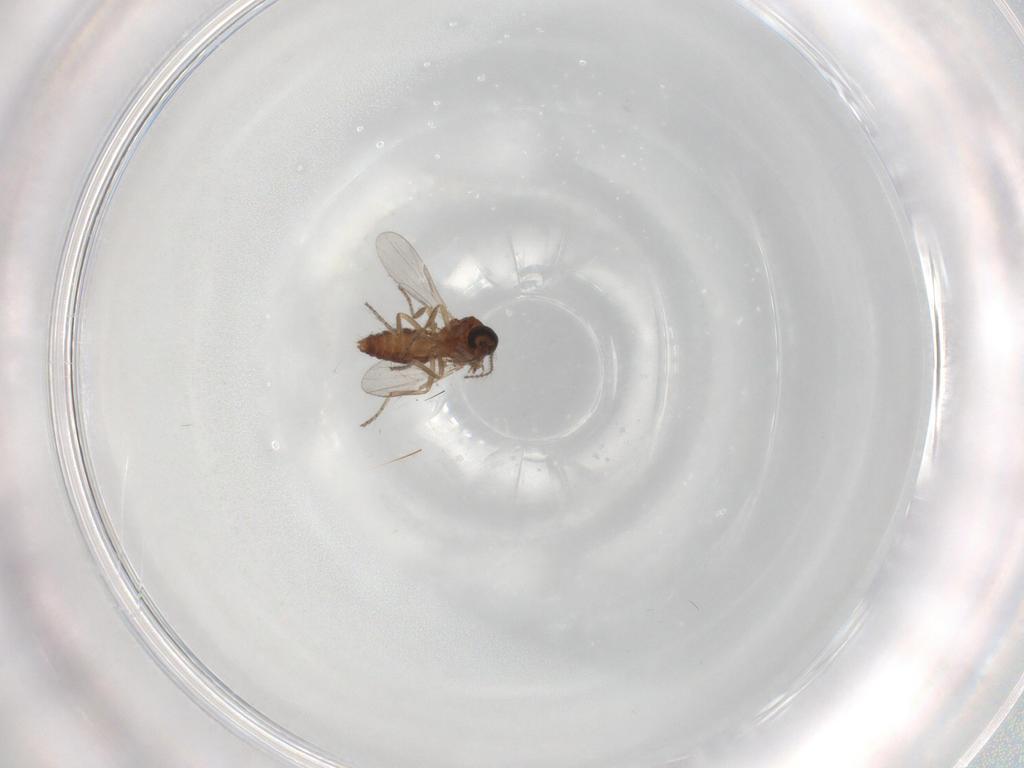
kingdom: Animalia
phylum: Arthropoda
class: Insecta
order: Diptera
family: Ceratopogonidae
